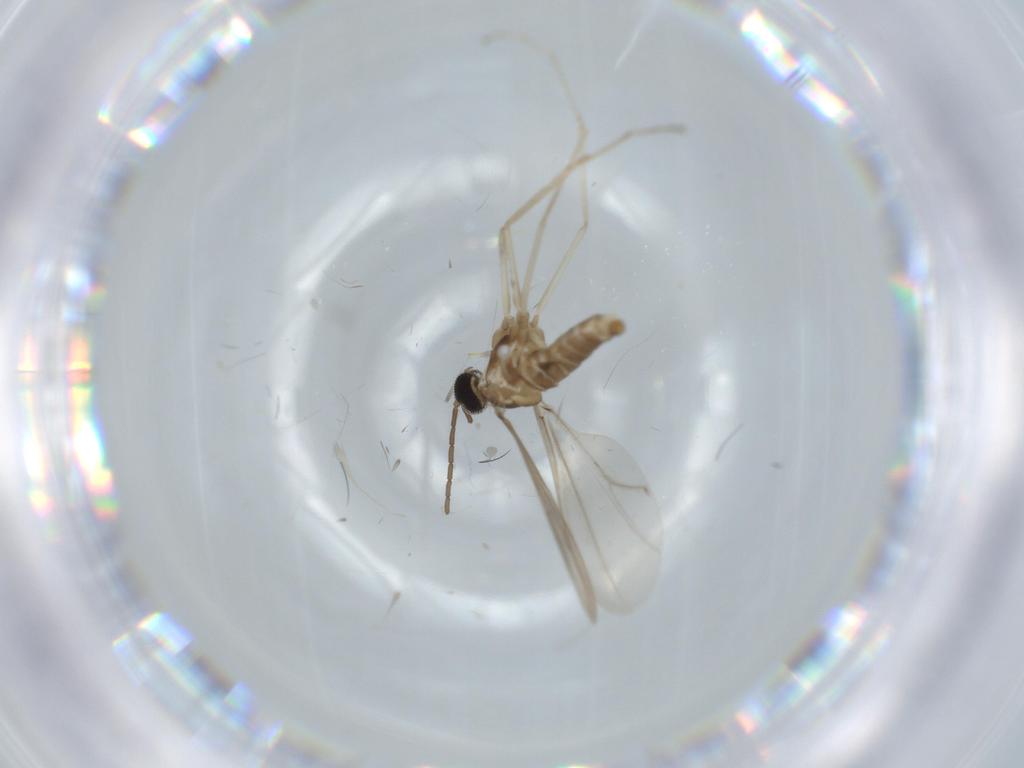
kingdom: Animalia
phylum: Arthropoda
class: Insecta
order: Diptera
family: Cecidomyiidae
